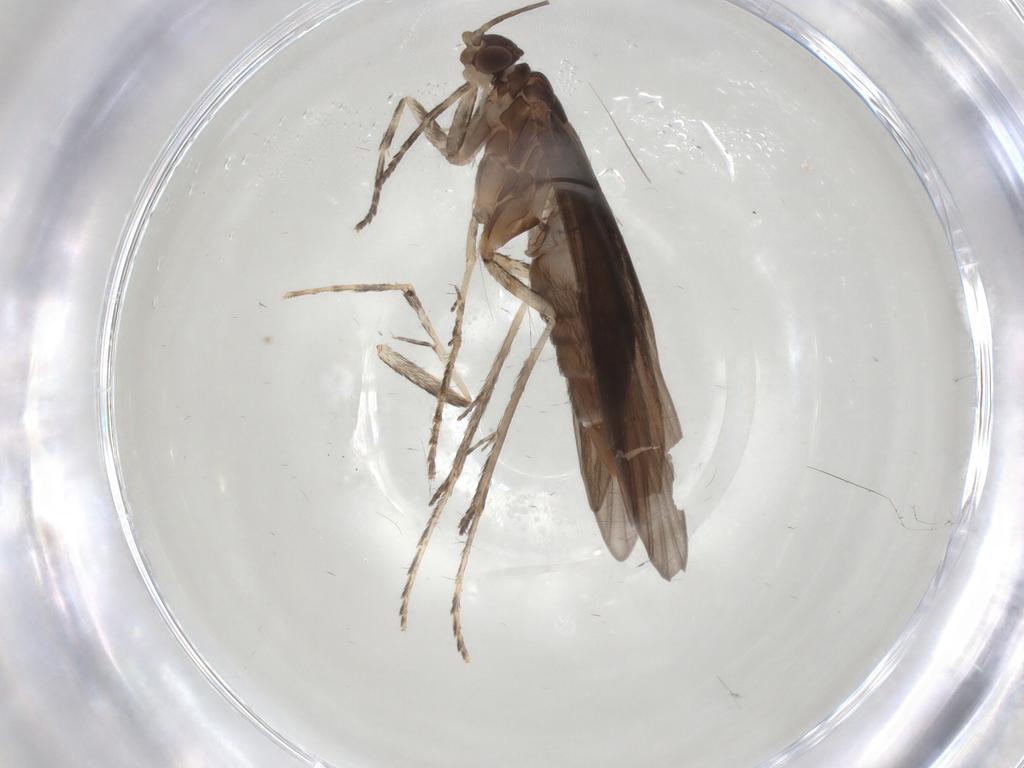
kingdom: Animalia
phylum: Arthropoda
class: Insecta
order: Trichoptera
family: Xiphocentronidae
